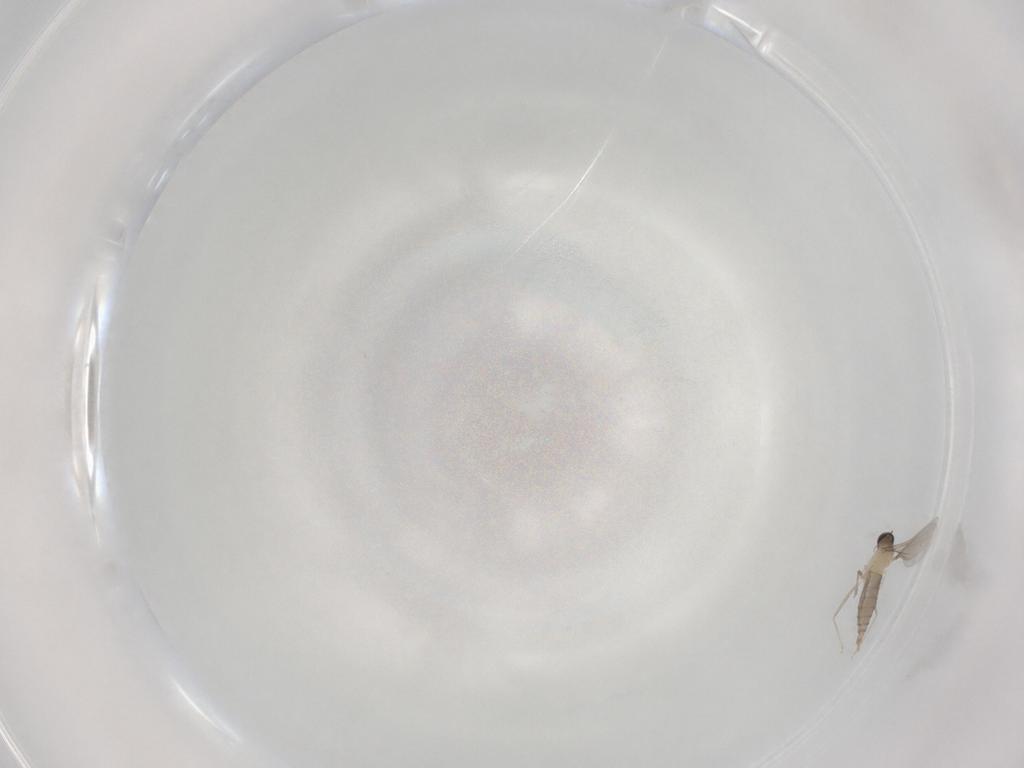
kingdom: Animalia
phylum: Arthropoda
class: Insecta
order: Diptera
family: Cecidomyiidae
